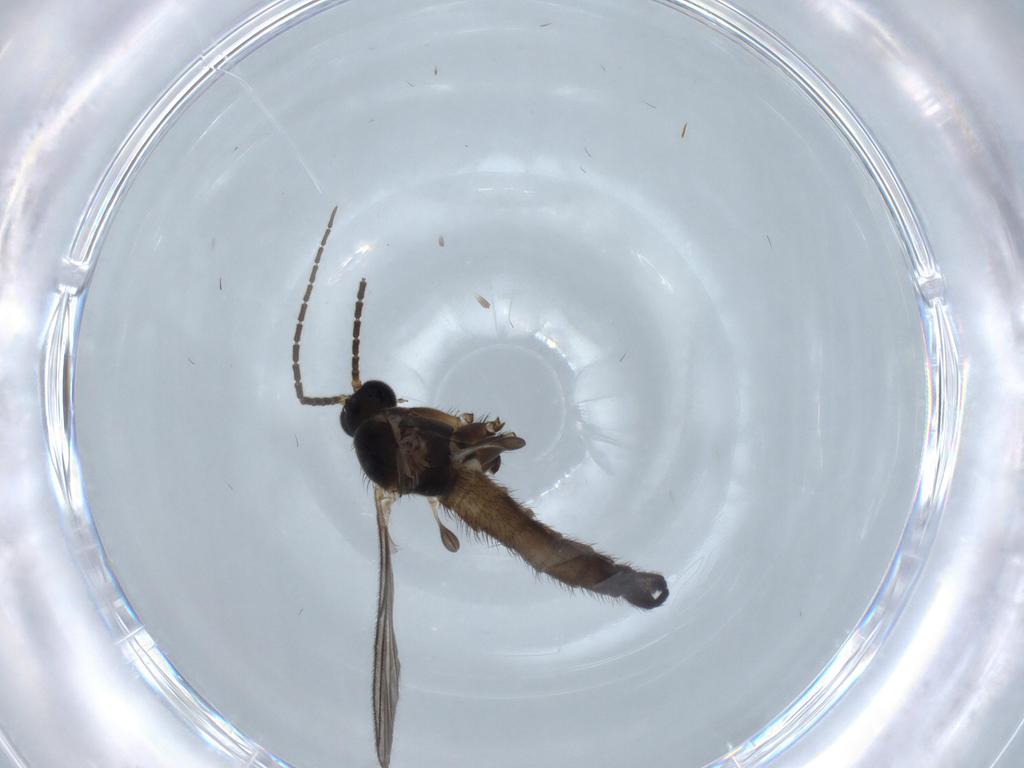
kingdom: Animalia
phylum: Arthropoda
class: Insecta
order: Diptera
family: Sciaridae
